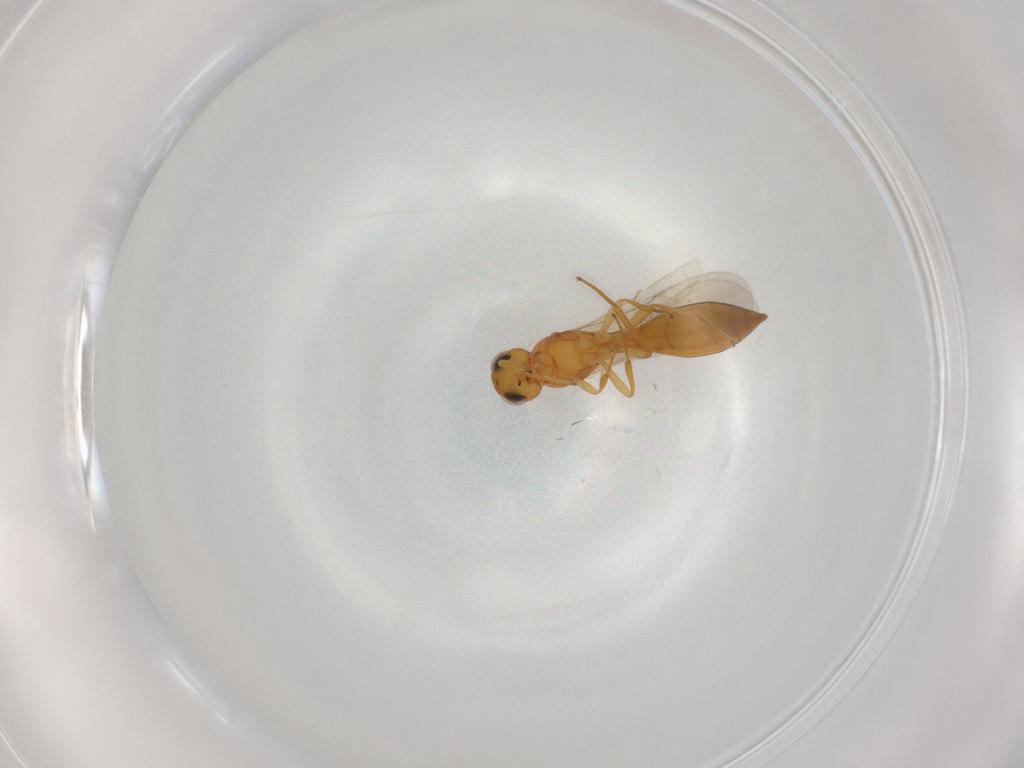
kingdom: Animalia
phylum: Arthropoda
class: Insecta
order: Hymenoptera
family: Scelionidae
